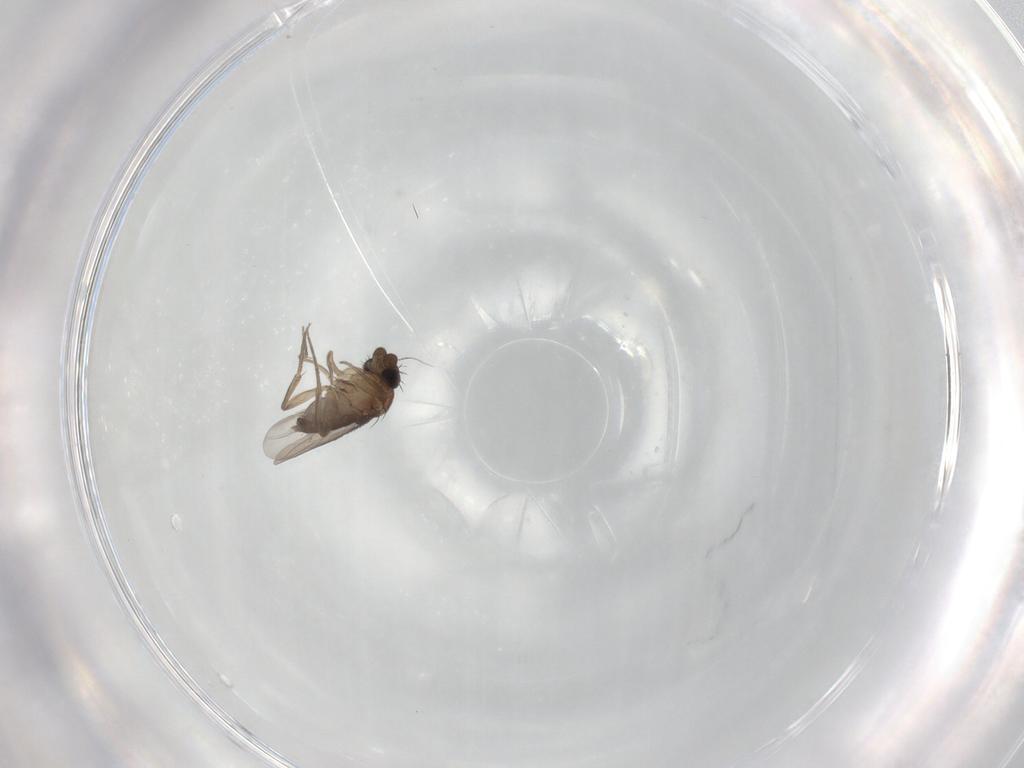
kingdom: Animalia
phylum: Arthropoda
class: Insecta
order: Diptera
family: Phoridae
